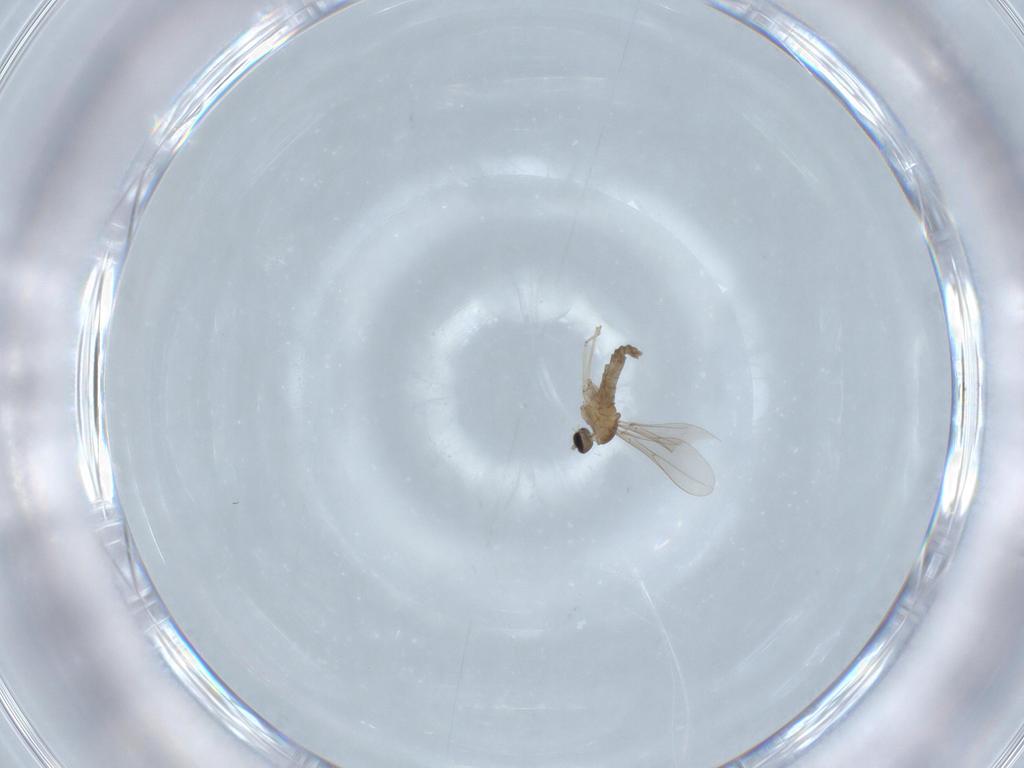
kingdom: Animalia
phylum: Arthropoda
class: Insecta
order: Diptera
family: Cecidomyiidae
